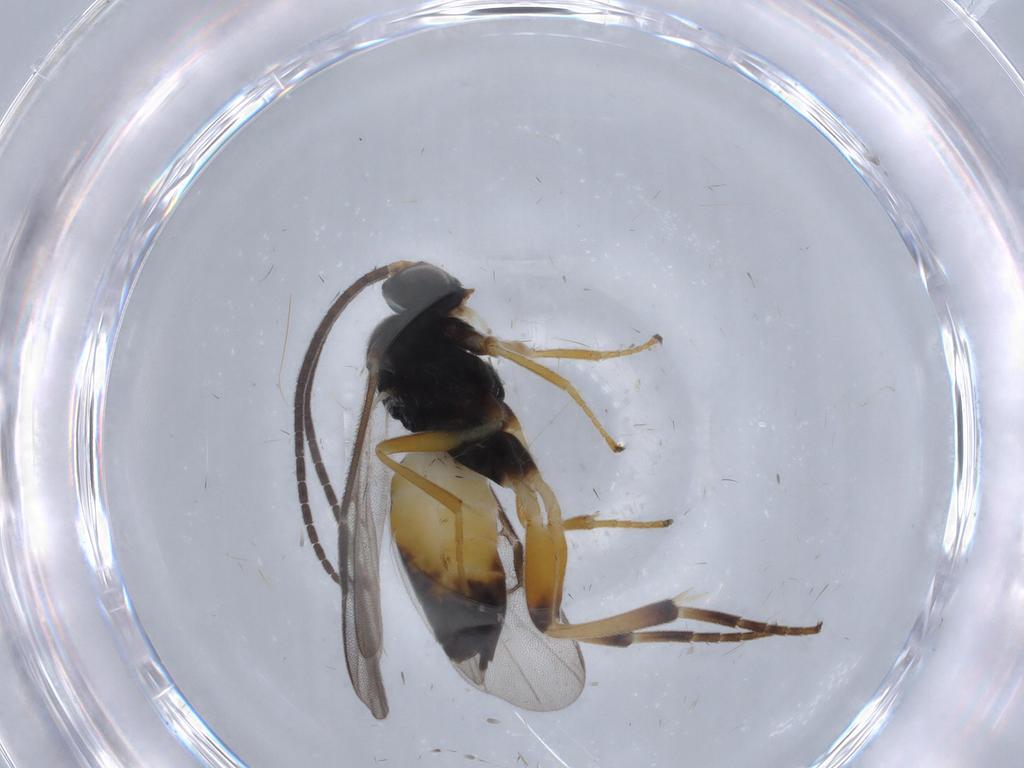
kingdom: Animalia
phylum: Arthropoda
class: Insecta
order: Hymenoptera
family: Braconidae
